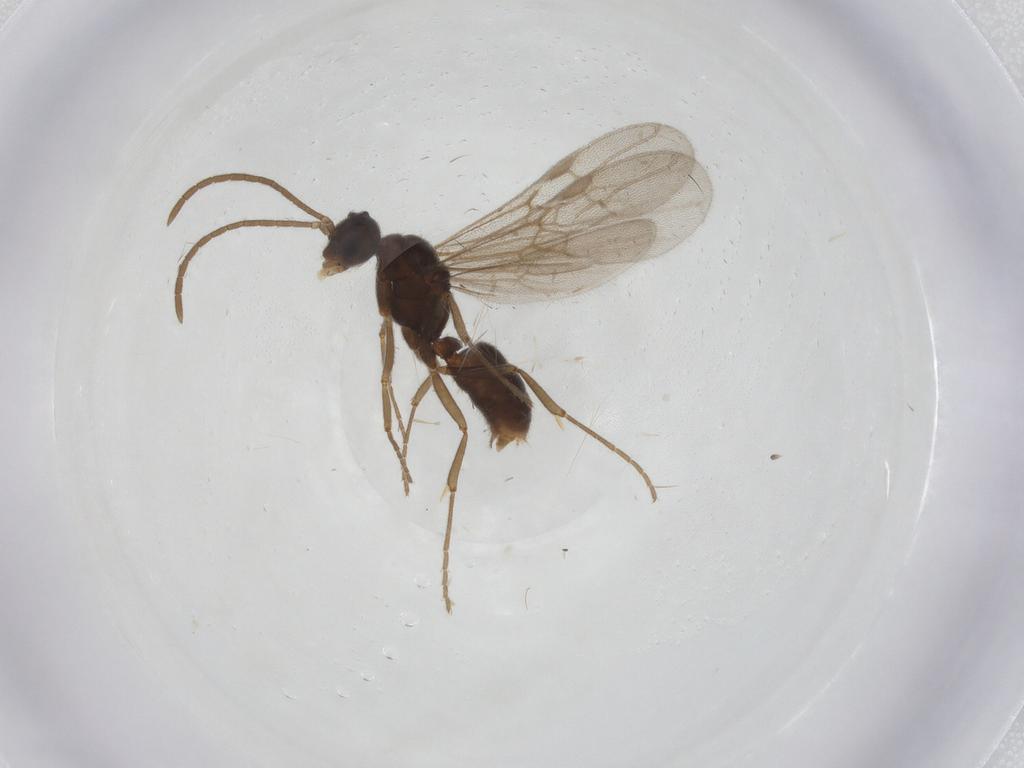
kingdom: Animalia
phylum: Arthropoda
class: Insecta
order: Hymenoptera
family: Formicidae
